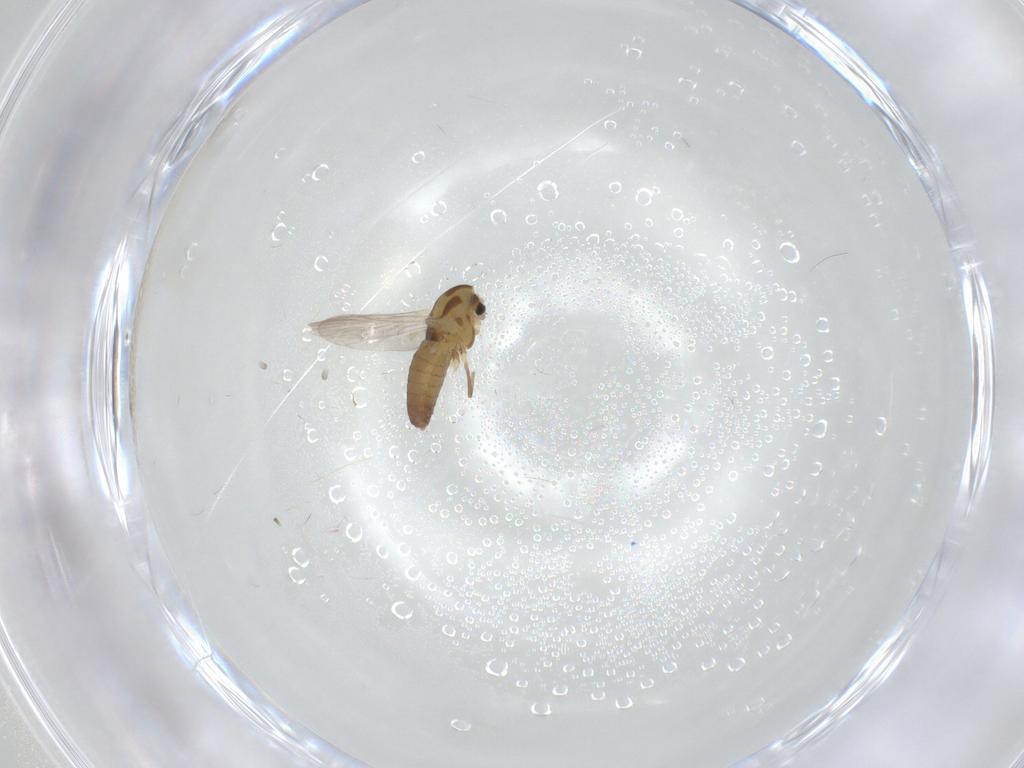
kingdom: Animalia
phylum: Arthropoda
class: Insecta
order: Diptera
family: Chironomidae
